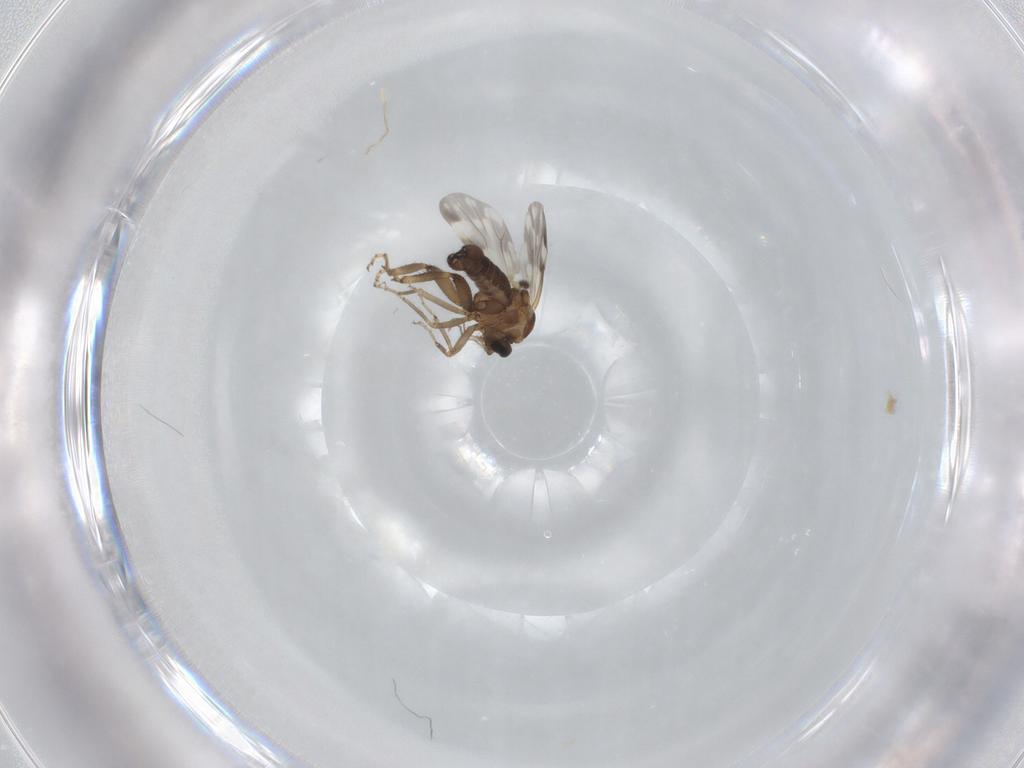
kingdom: Animalia
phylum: Arthropoda
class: Insecta
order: Diptera
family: Ceratopogonidae
